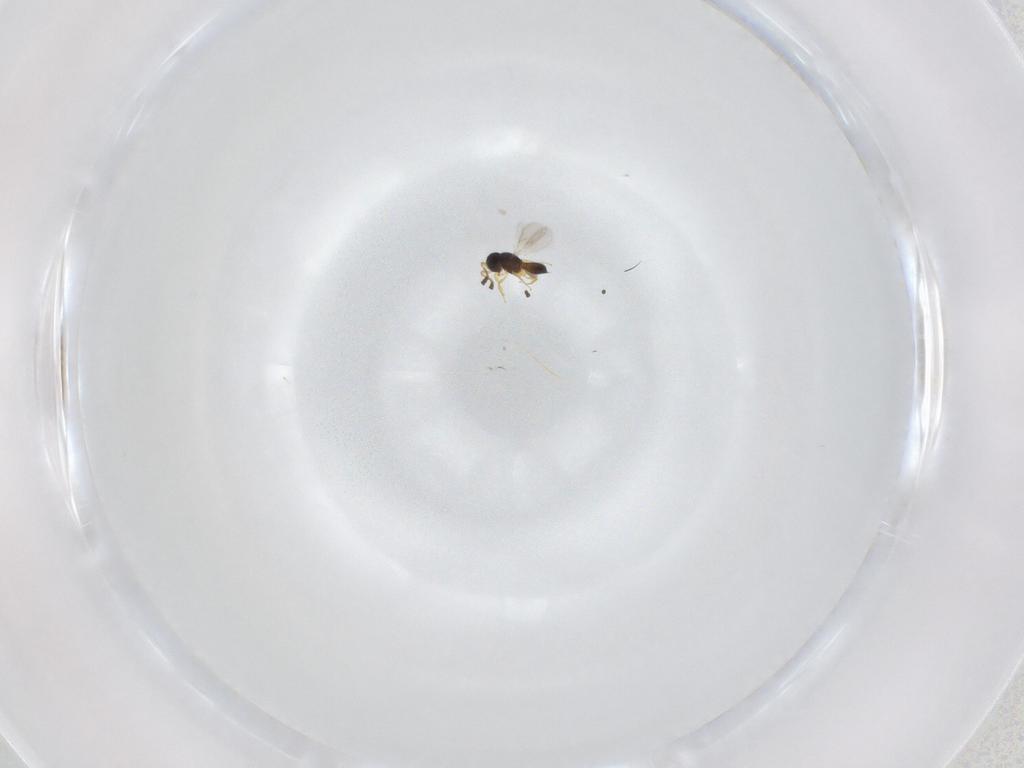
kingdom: Animalia
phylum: Arthropoda
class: Insecta
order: Hymenoptera
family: Scelionidae
